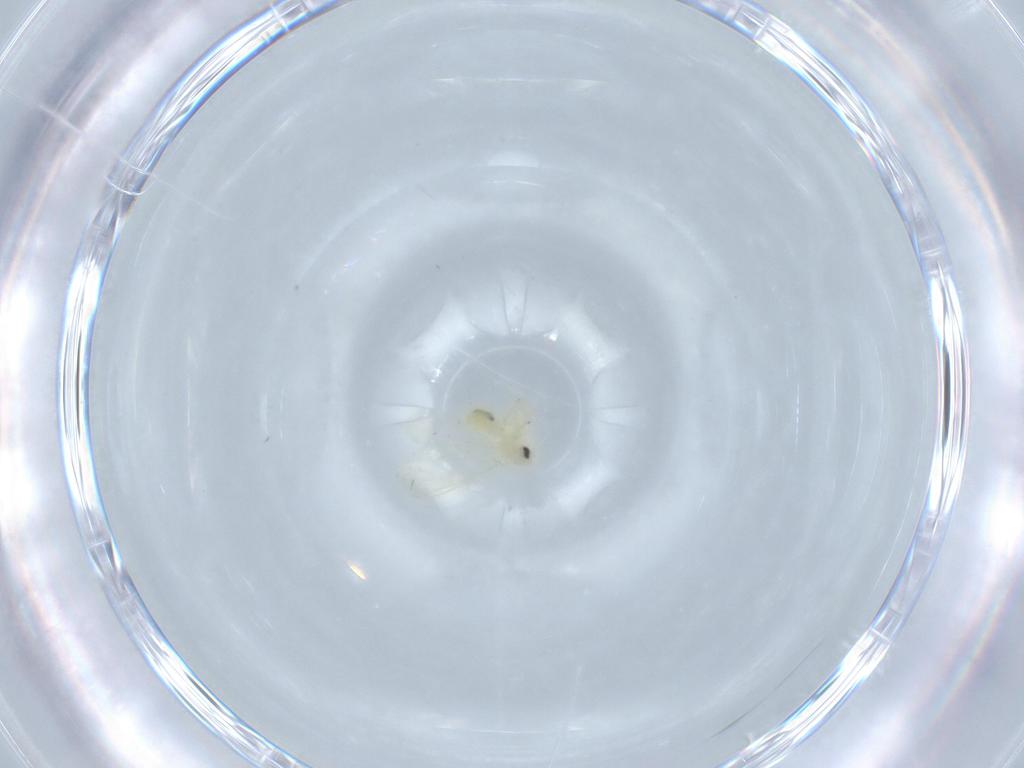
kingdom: Animalia
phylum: Arthropoda
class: Insecta
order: Hemiptera
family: Aleyrodidae
